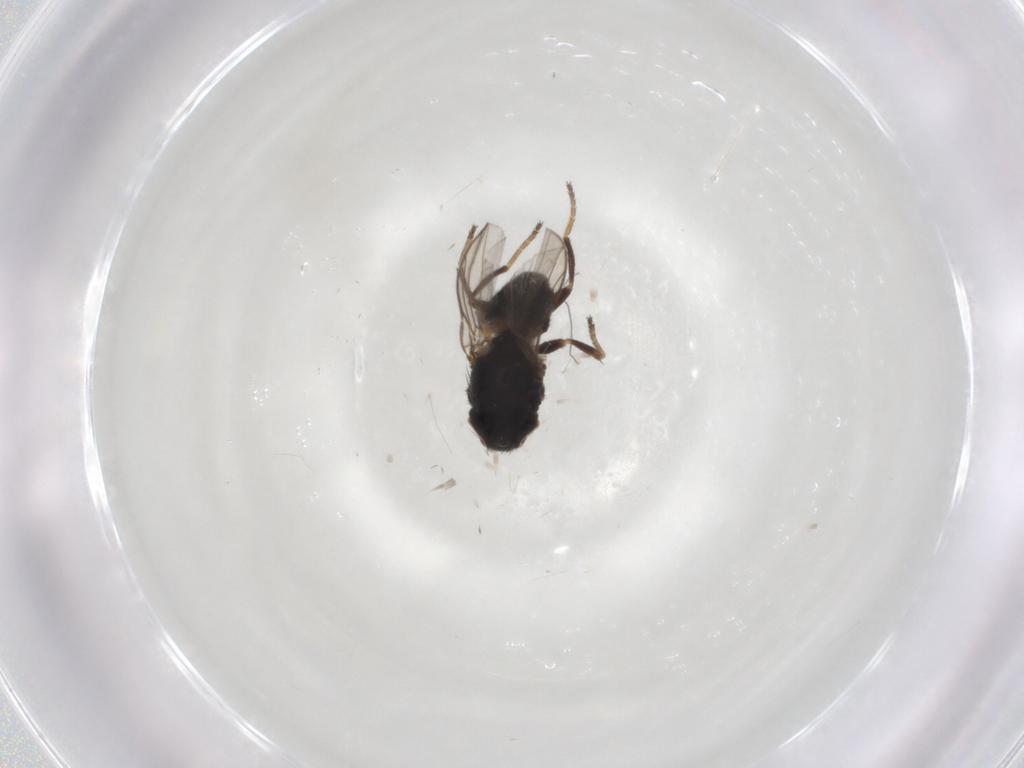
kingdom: Animalia
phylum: Arthropoda
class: Insecta
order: Diptera
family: Chloropidae
